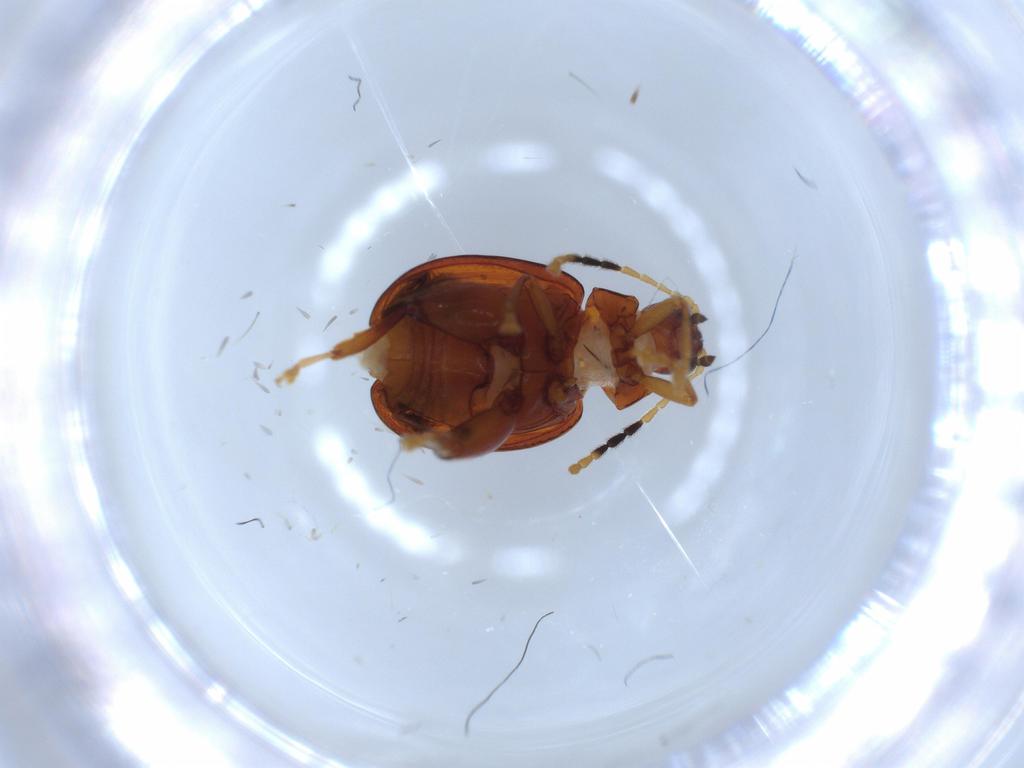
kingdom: Animalia
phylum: Arthropoda
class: Insecta
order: Coleoptera
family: Chrysomelidae
